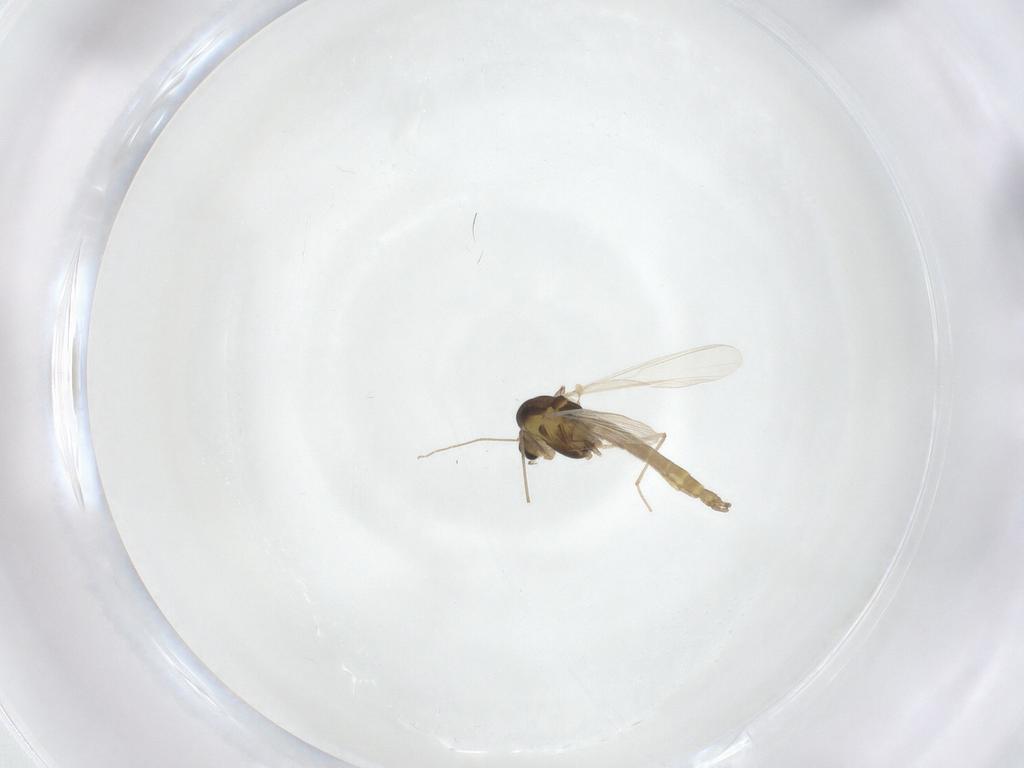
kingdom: Animalia
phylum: Arthropoda
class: Insecta
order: Diptera
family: Chironomidae
